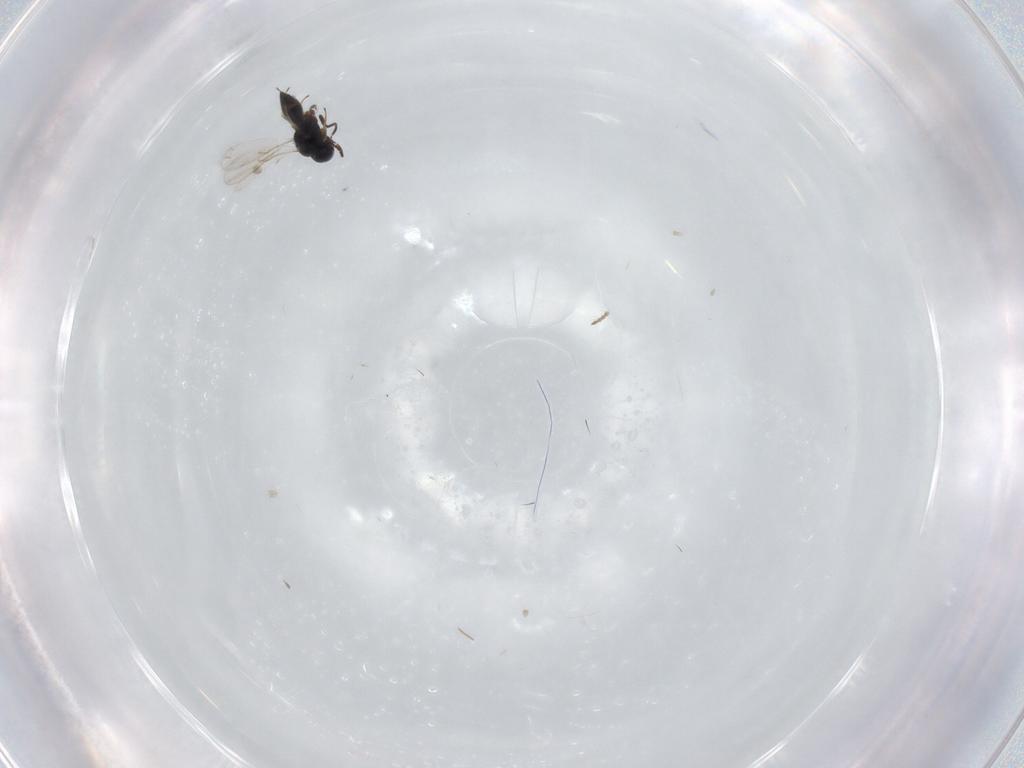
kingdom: Animalia
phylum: Arthropoda
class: Insecta
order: Hymenoptera
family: Scelionidae
